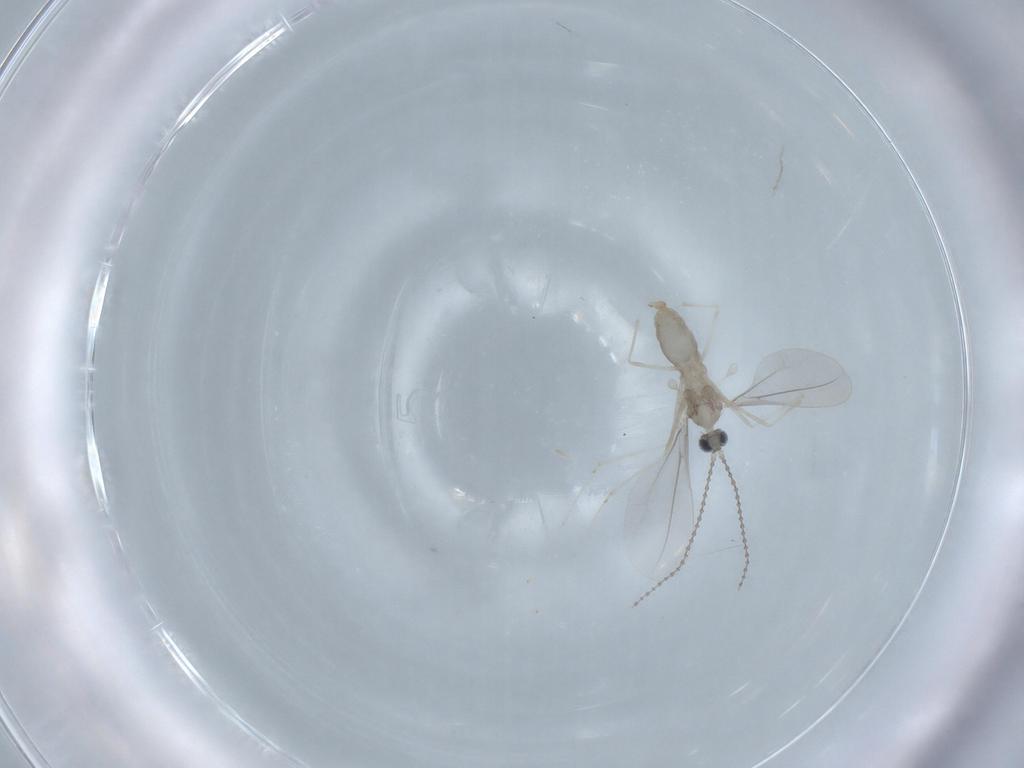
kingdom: Animalia
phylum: Arthropoda
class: Insecta
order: Diptera
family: Cecidomyiidae
